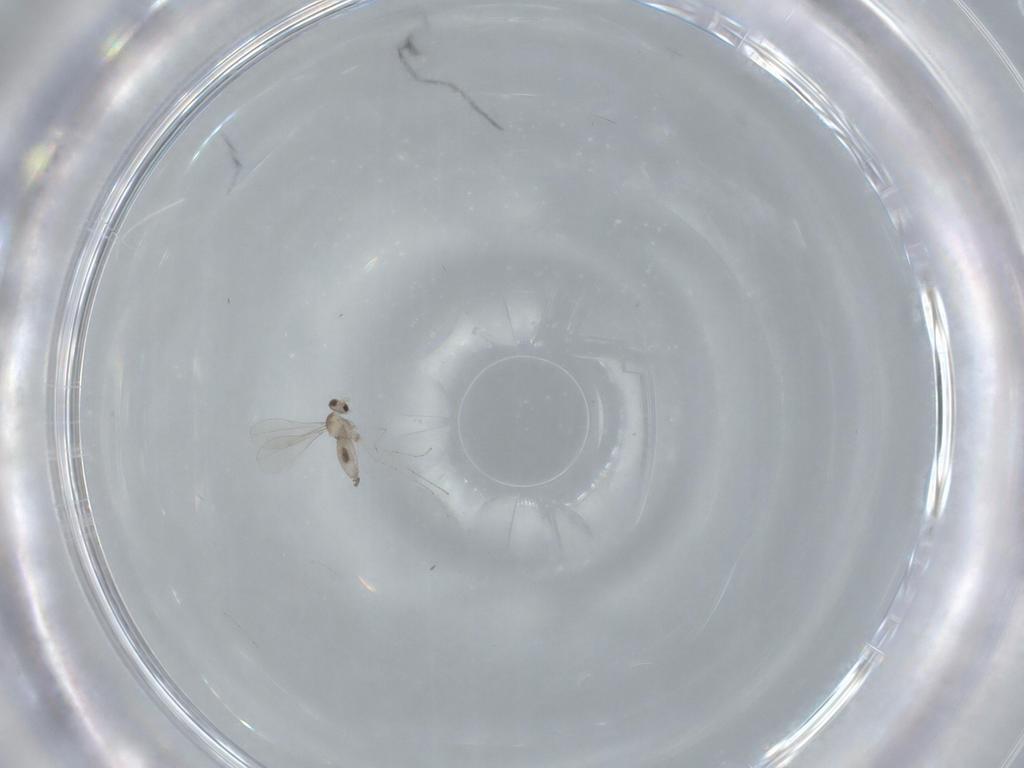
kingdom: Animalia
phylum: Arthropoda
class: Insecta
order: Diptera
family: Cecidomyiidae
